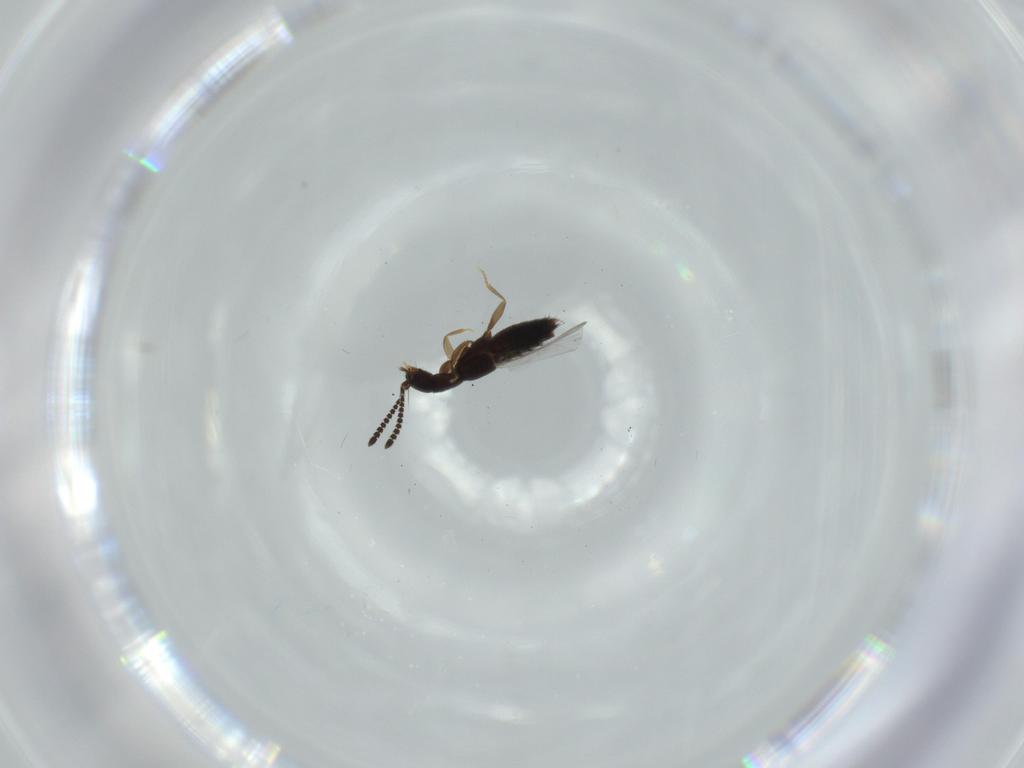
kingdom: Animalia
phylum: Arthropoda
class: Insecta
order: Coleoptera
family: Staphylinidae
